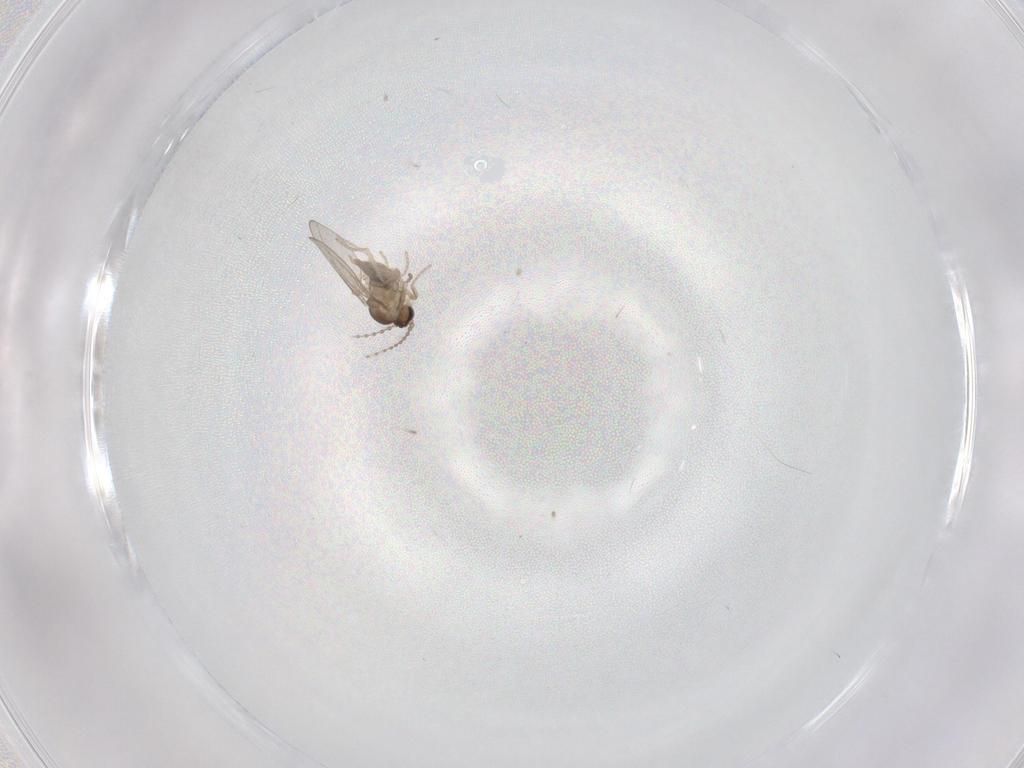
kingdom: Animalia
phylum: Arthropoda
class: Insecta
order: Diptera
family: Cecidomyiidae
